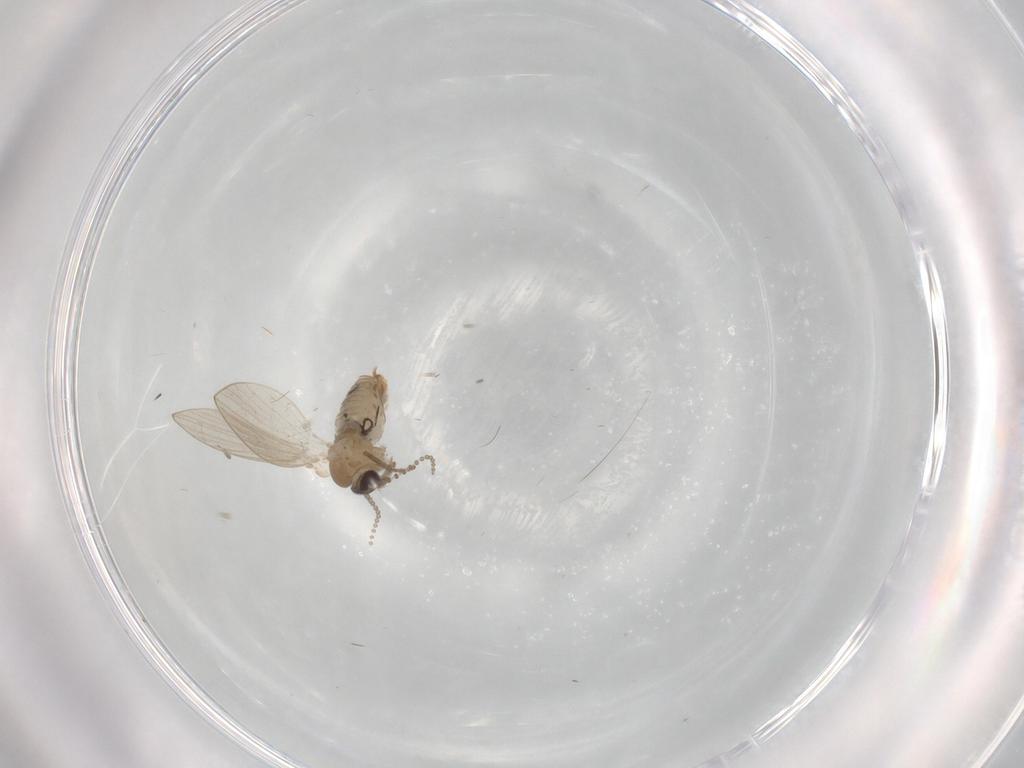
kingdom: Animalia
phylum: Arthropoda
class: Insecta
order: Diptera
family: Psychodidae
